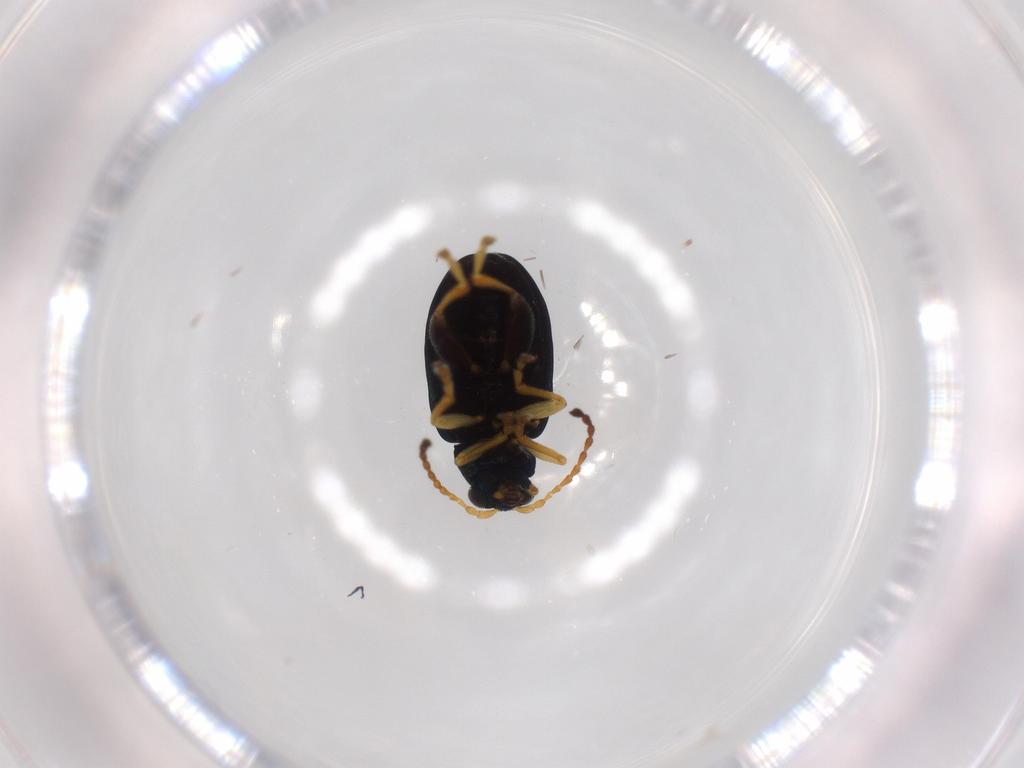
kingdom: Animalia
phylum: Arthropoda
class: Insecta
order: Coleoptera
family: Chrysomelidae
